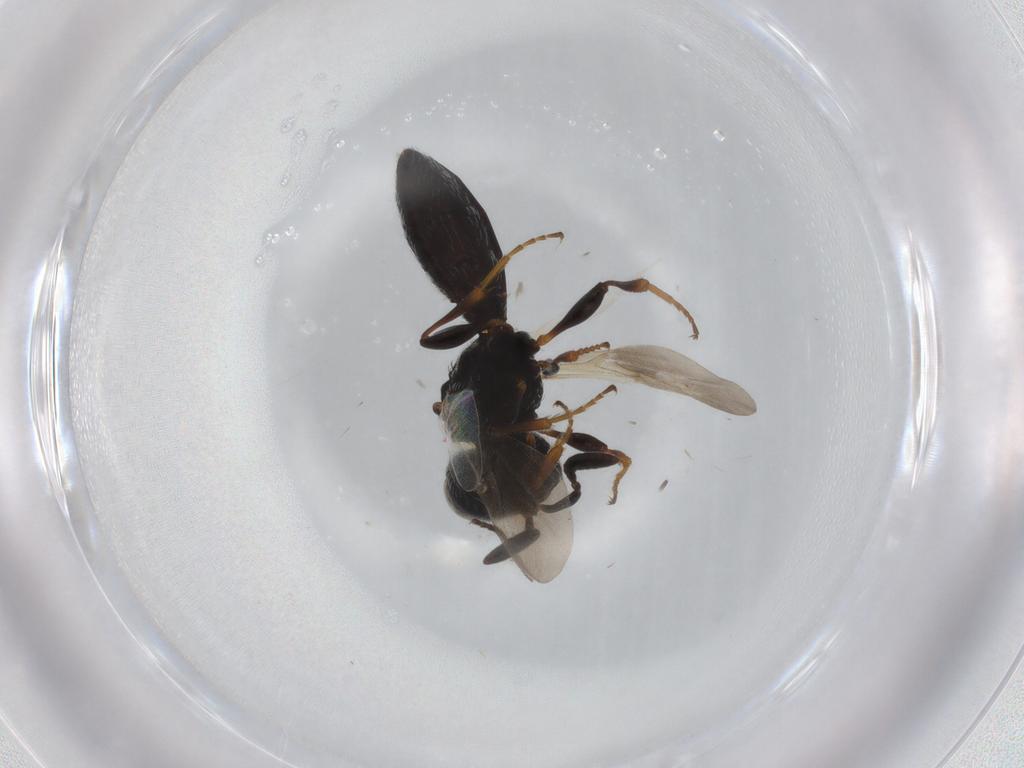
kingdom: Animalia
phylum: Arthropoda
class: Insecta
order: Hymenoptera
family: Scelionidae
